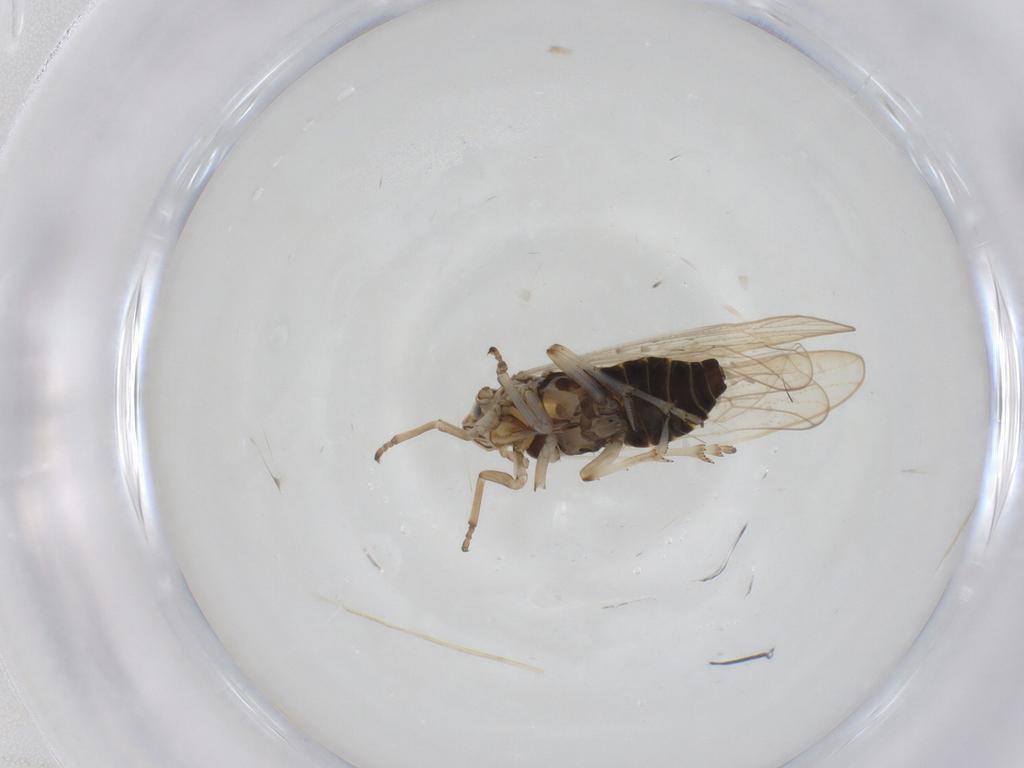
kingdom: Animalia
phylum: Arthropoda
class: Insecta
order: Hemiptera
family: Delphacidae
